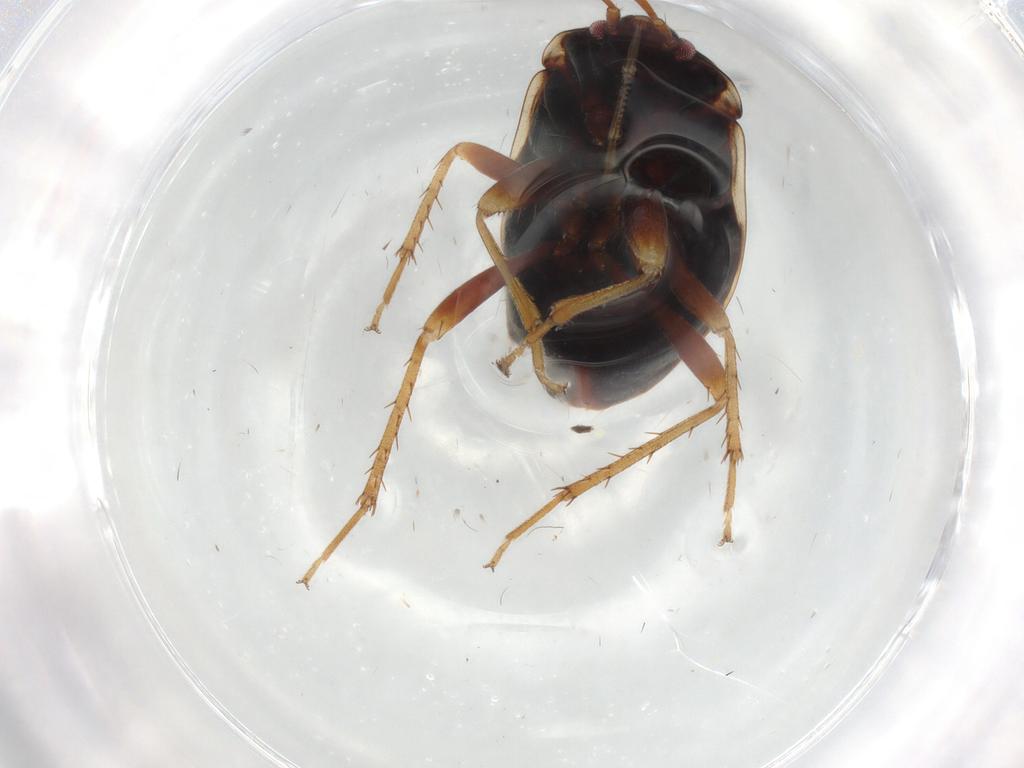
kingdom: Animalia
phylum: Arthropoda
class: Insecta
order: Hemiptera
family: Rhyparochromidae
